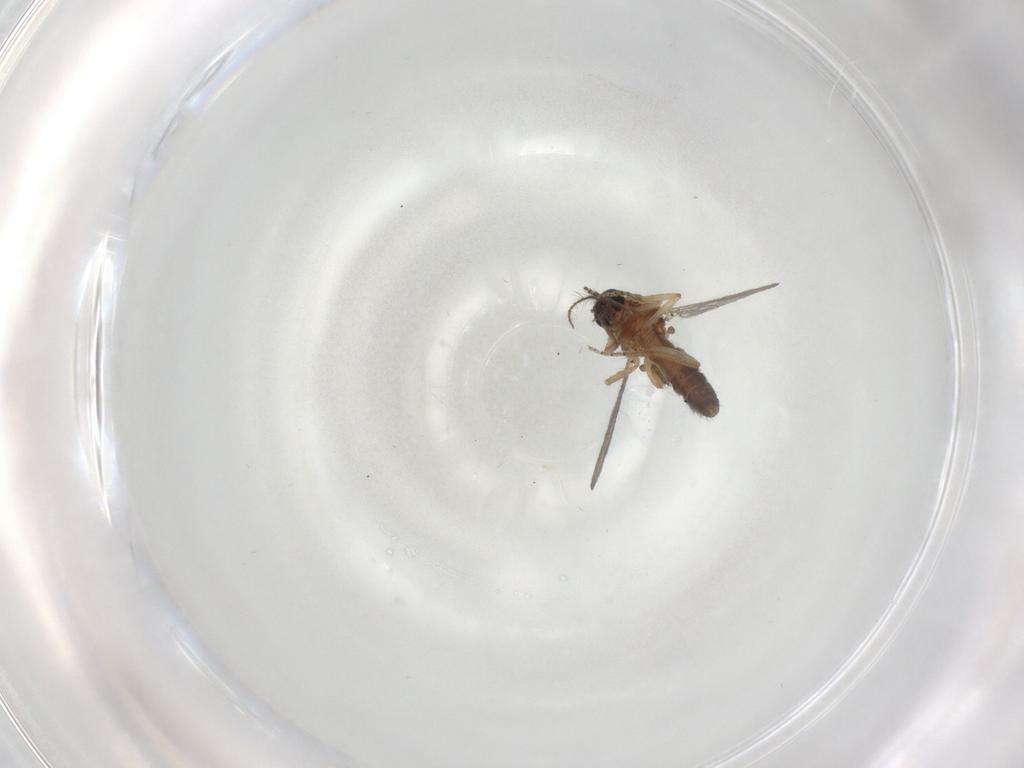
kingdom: Animalia
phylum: Arthropoda
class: Insecta
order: Diptera
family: Sciaridae
